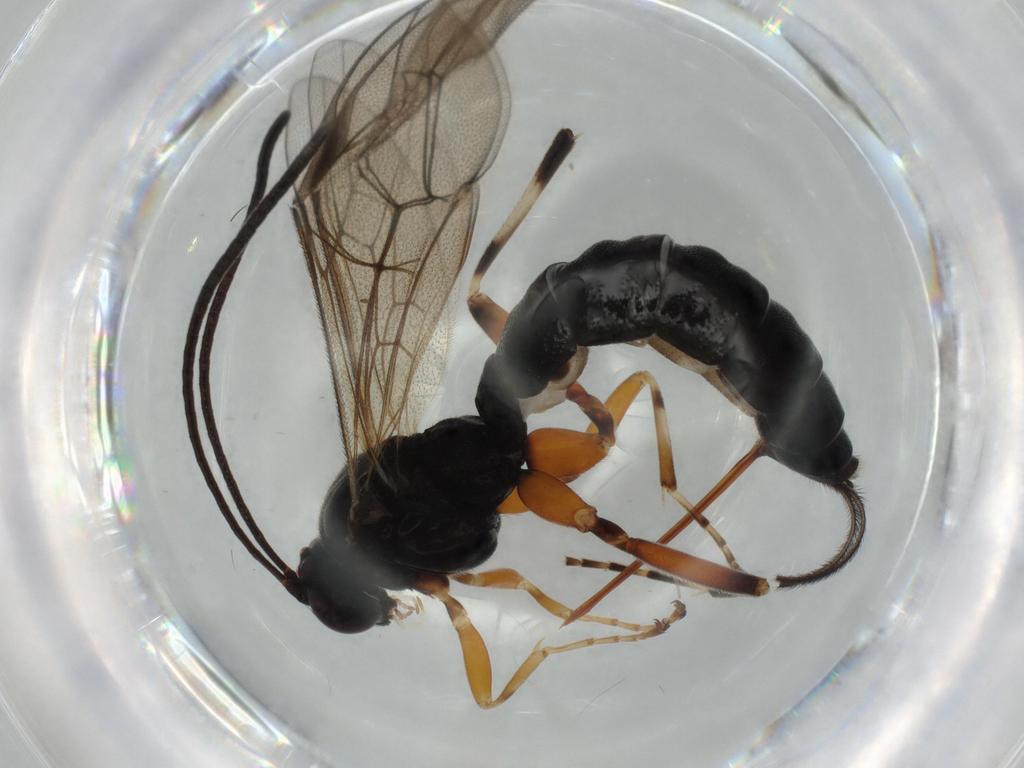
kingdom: Animalia
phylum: Arthropoda
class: Insecta
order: Hymenoptera
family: Ichneumonidae
